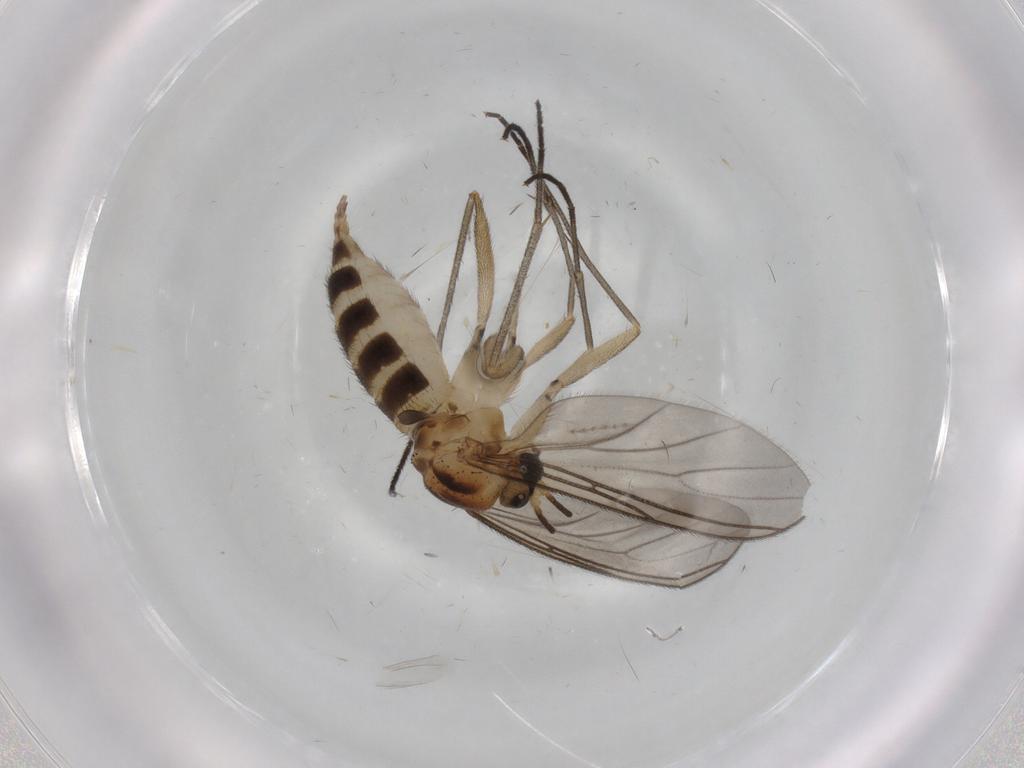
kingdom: Animalia
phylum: Arthropoda
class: Insecta
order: Diptera
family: Sciaridae
